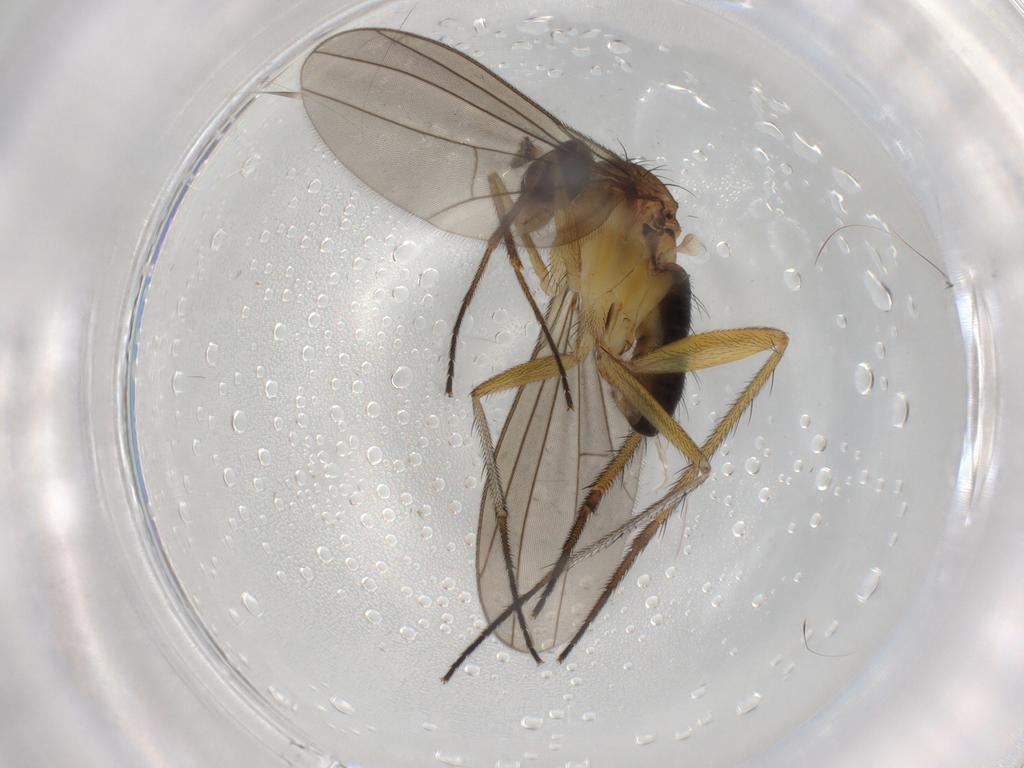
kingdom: Animalia
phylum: Arthropoda
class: Insecta
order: Diptera
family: Dolichopodidae
